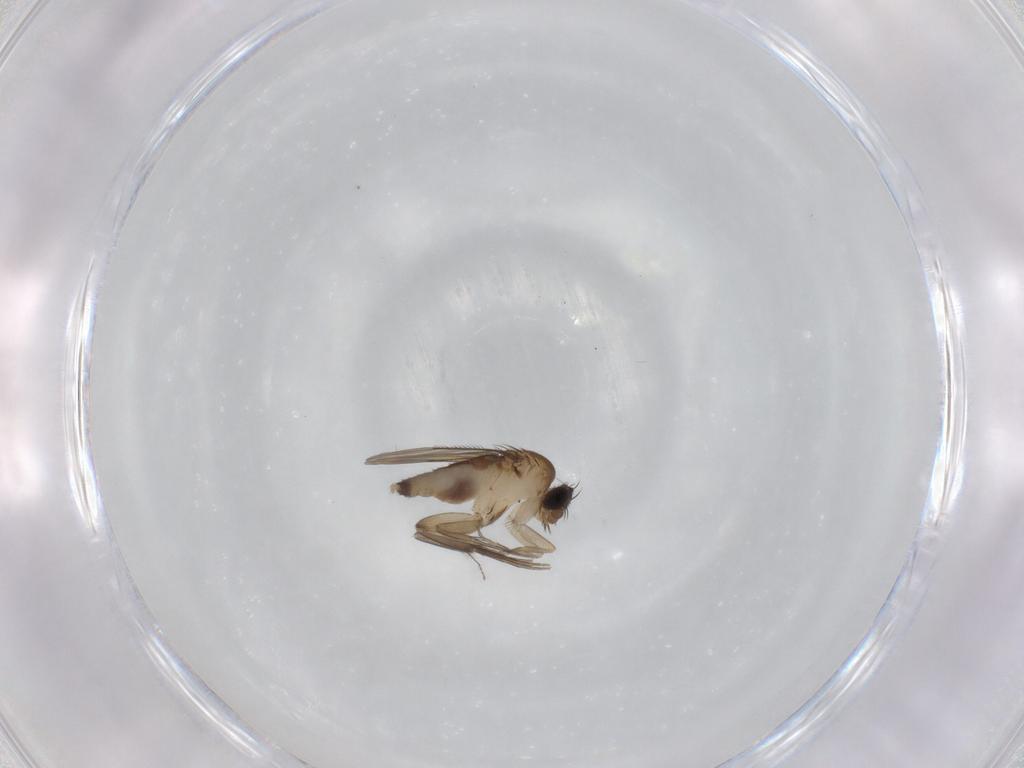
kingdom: Animalia
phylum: Arthropoda
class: Insecta
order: Diptera
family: Phoridae
